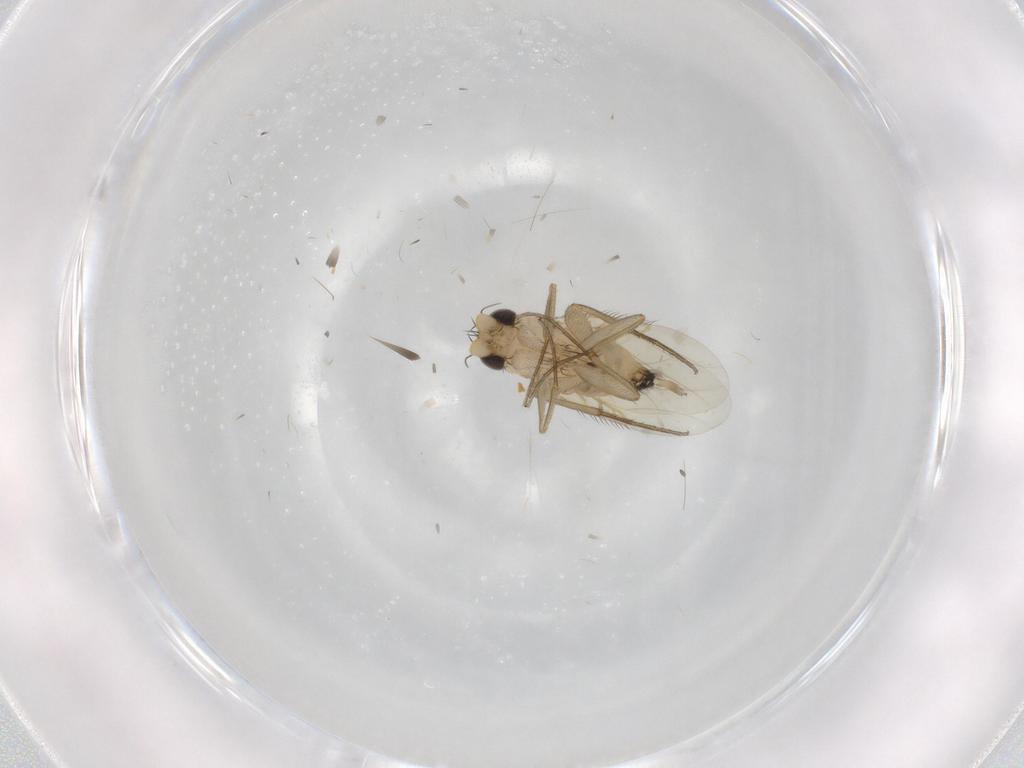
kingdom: Animalia
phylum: Arthropoda
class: Insecta
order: Diptera
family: Phoridae
